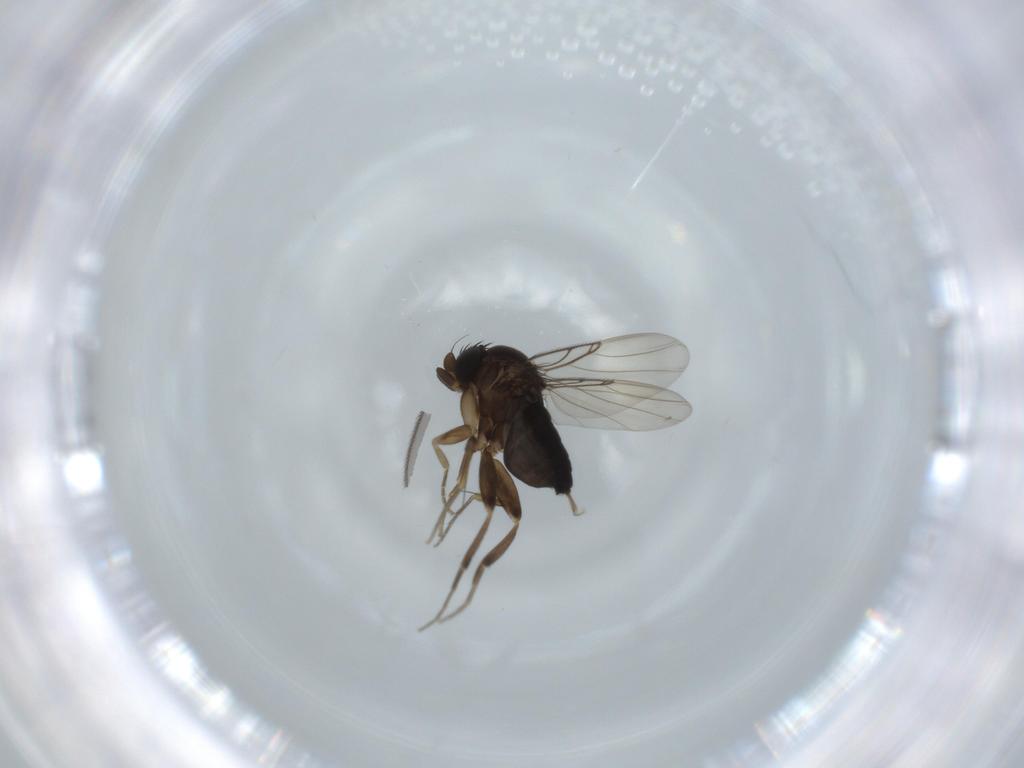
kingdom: Animalia
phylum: Arthropoda
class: Insecta
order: Diptera
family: Phoridae
